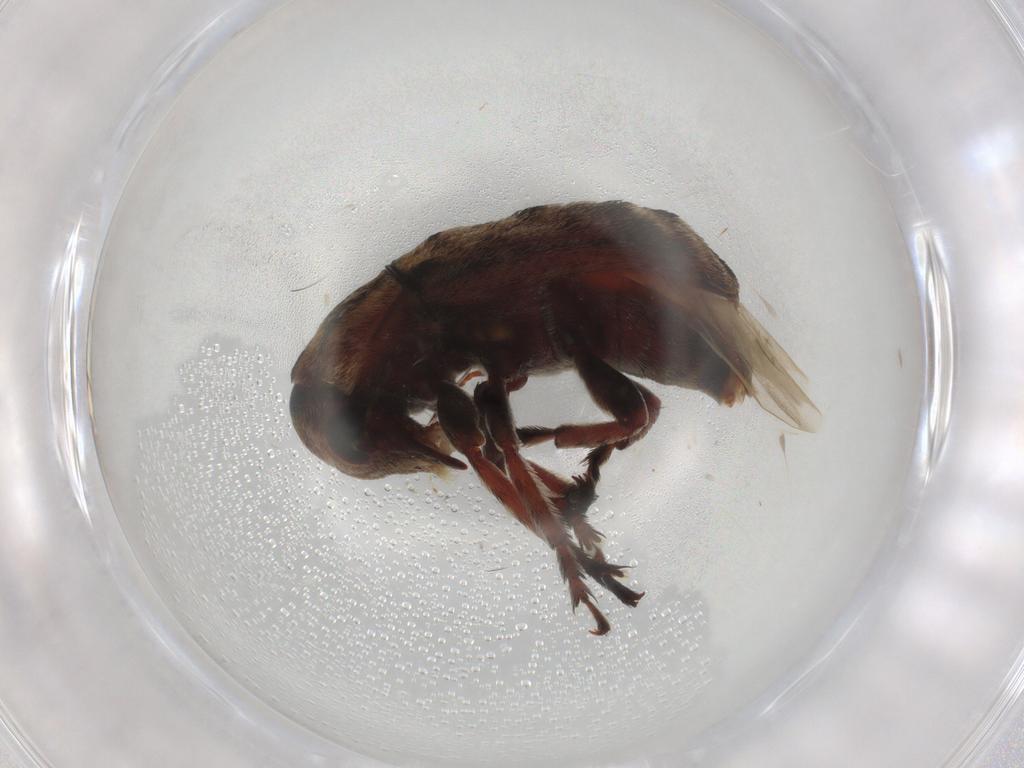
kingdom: Animalia
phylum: Arthropoda
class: Insecta
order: Coleoptera
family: Anthribidae
